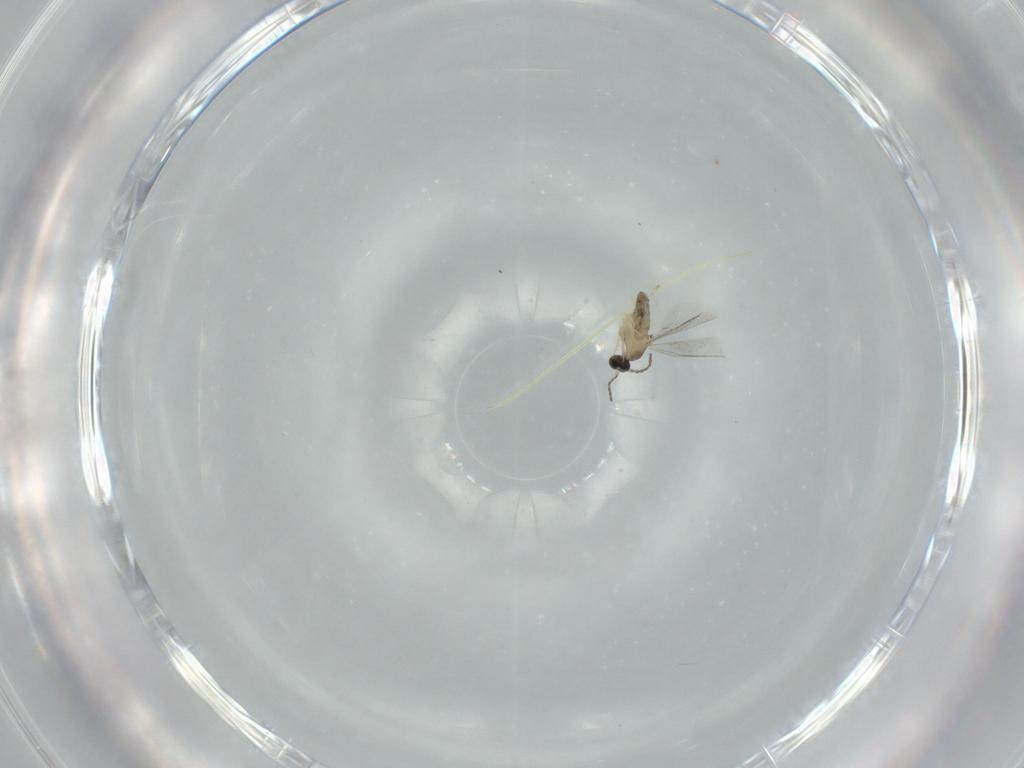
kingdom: Animalia
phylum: Arthropoda
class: Insecta
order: Diptera
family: Cecidomyiidae
